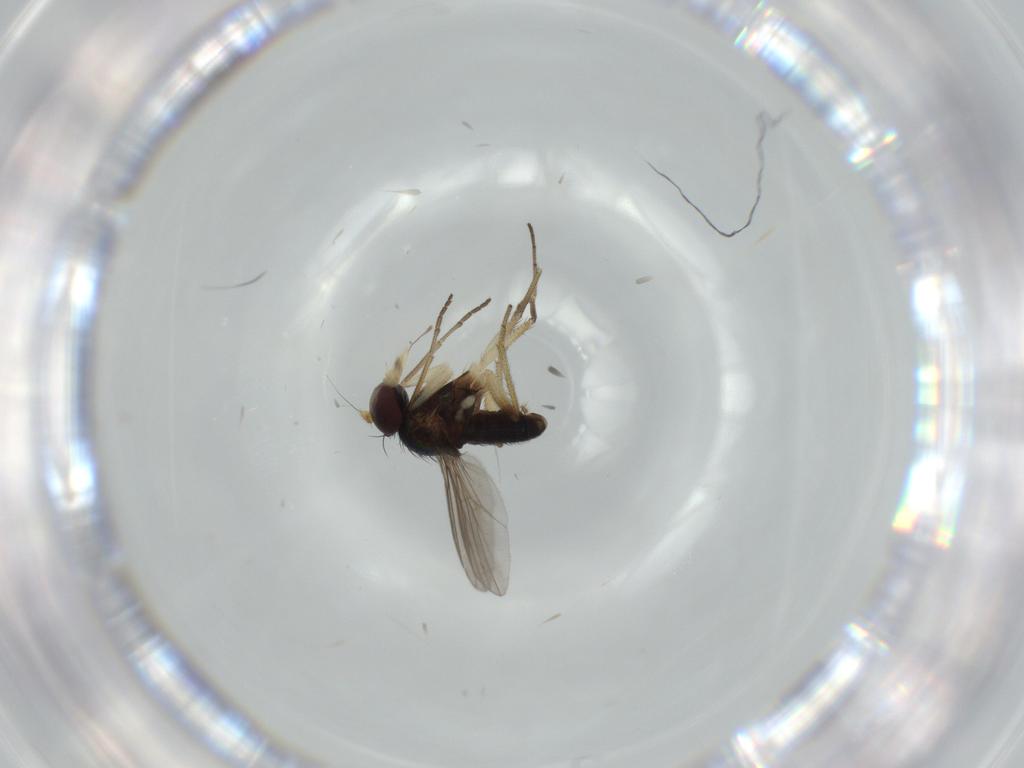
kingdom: Animalia
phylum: Arthropoda
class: Insecta
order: Diptera
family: Dolichopodidae
